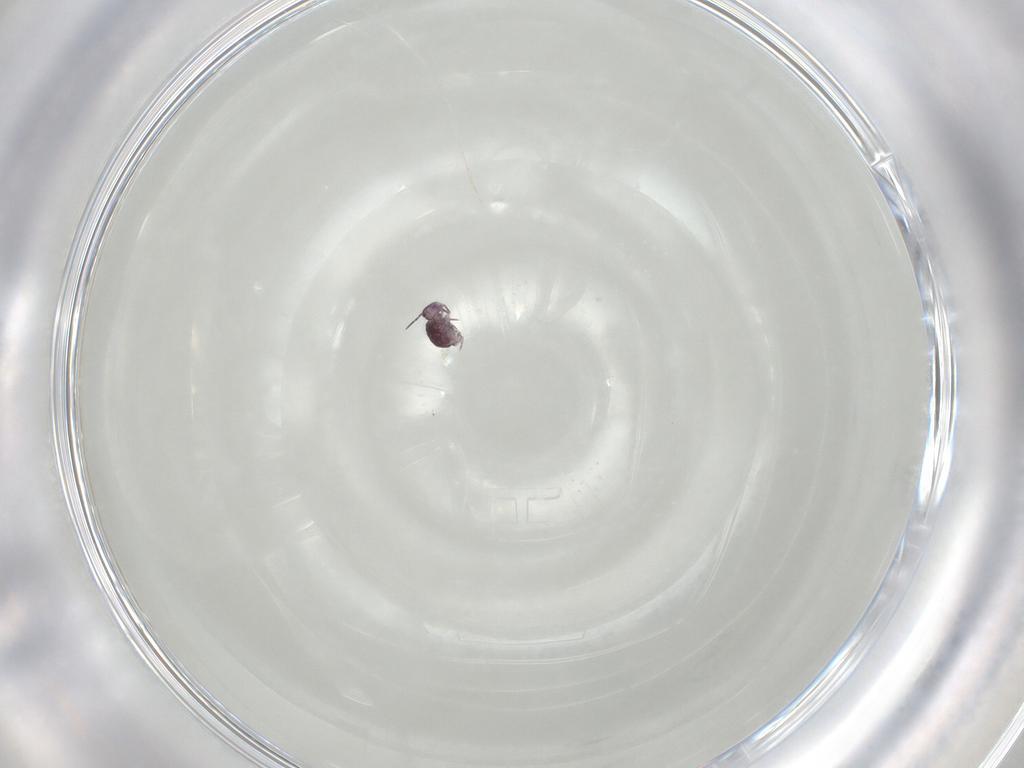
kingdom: Animalia
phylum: Arthropoda
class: Collembola
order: Symphypleona
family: Sminthurididae
